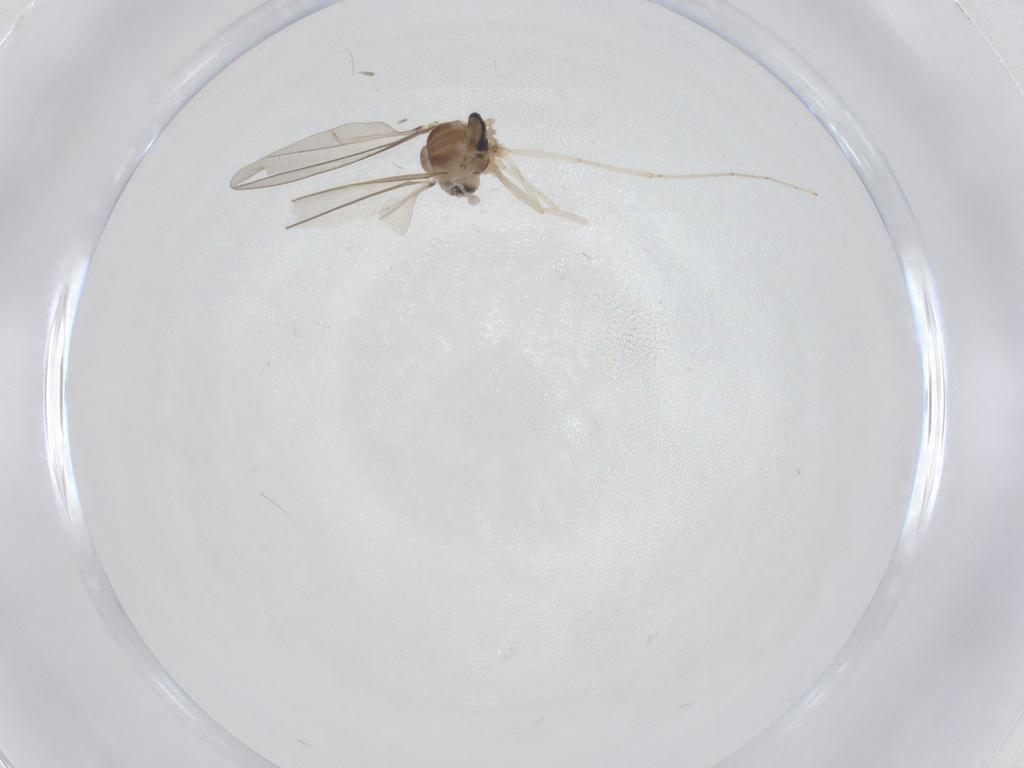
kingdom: Animalia
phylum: Arthropoda
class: Insecta
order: Diptera
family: Cecidomyiidae
